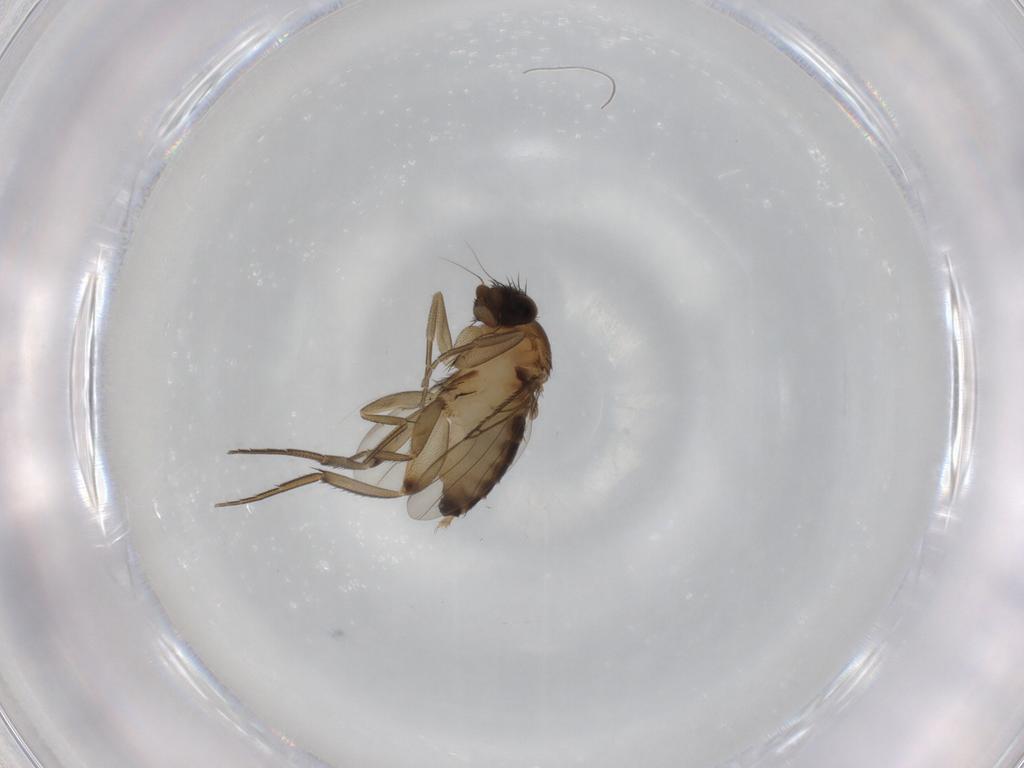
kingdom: Animalia
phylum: Arthropoda
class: Insecta
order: Diptera
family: Phoridae
